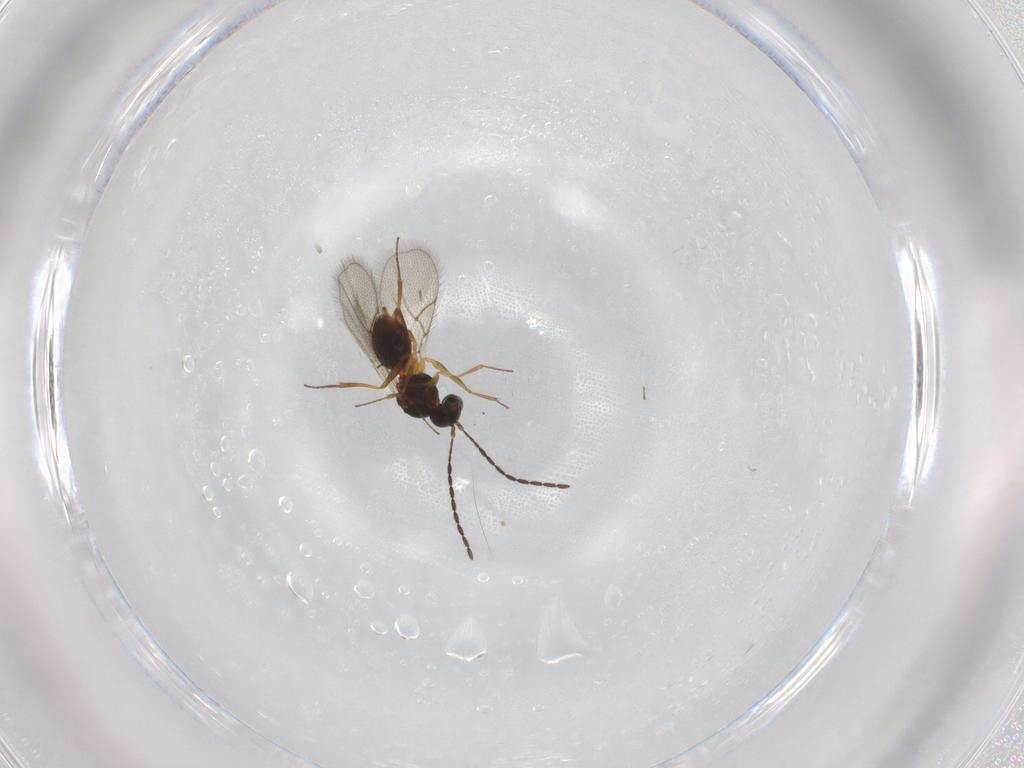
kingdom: Animalia
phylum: Arthropoda
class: Insecta
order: Hymenoptera
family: Figitidae
